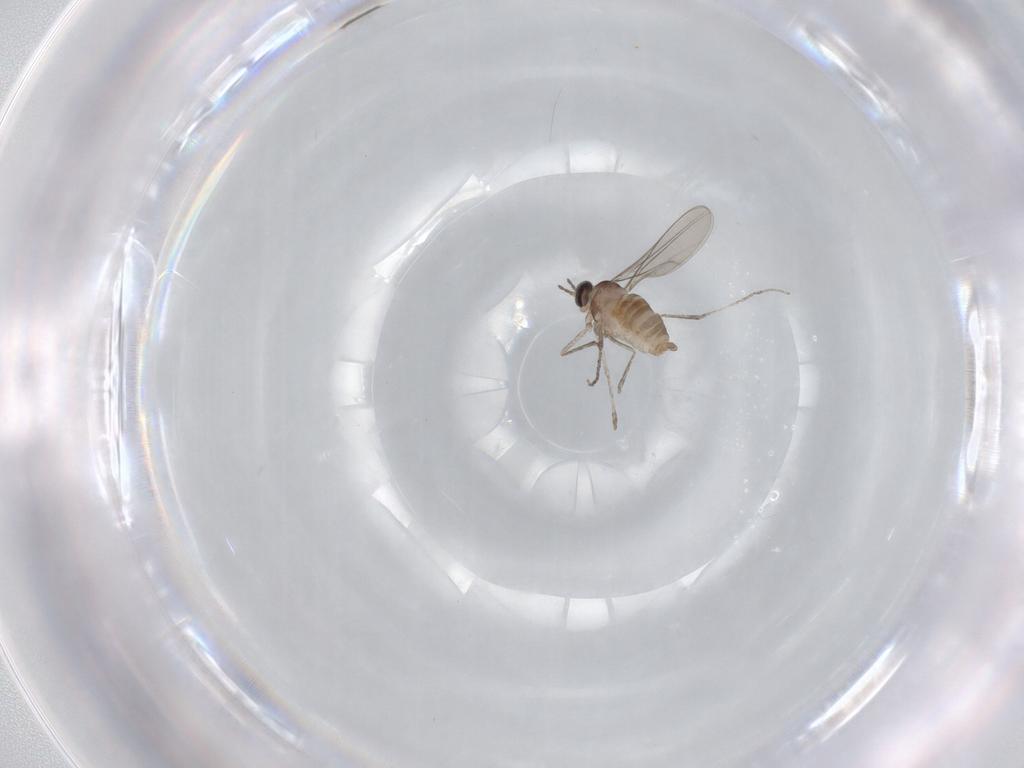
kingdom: Animalia
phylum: Arthropoda
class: Insecta
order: Diptera
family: Cecidomyiidae
